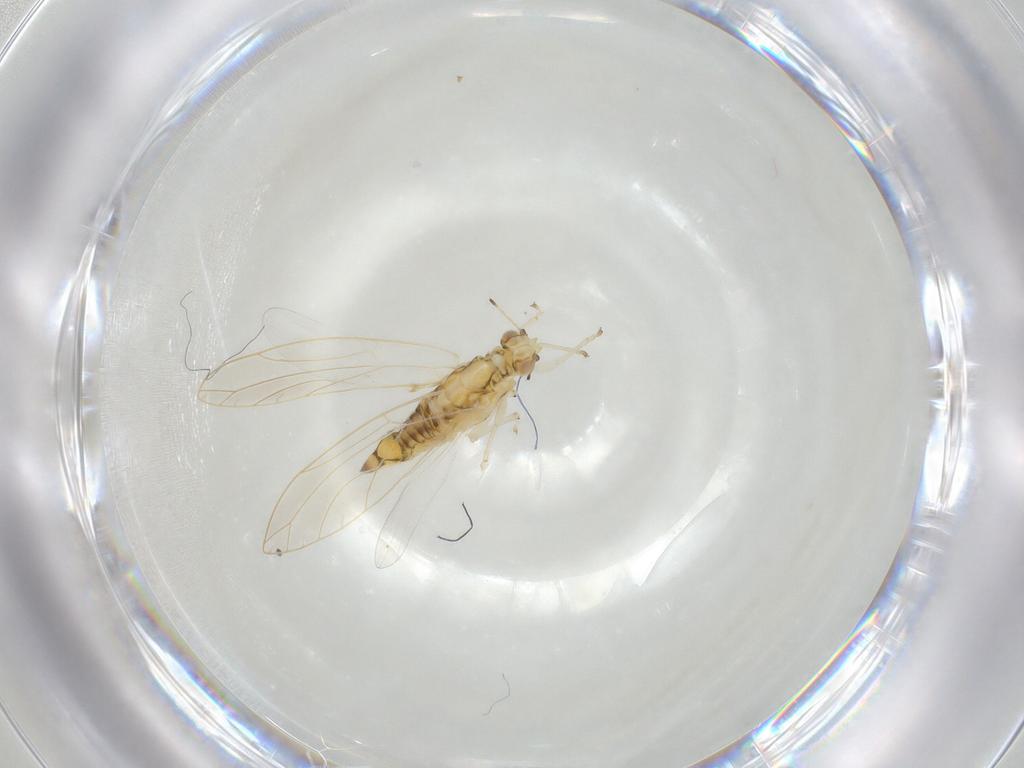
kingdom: Animalia
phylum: Arthropoda
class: Insecta
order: Hemiptera
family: Triozidae
